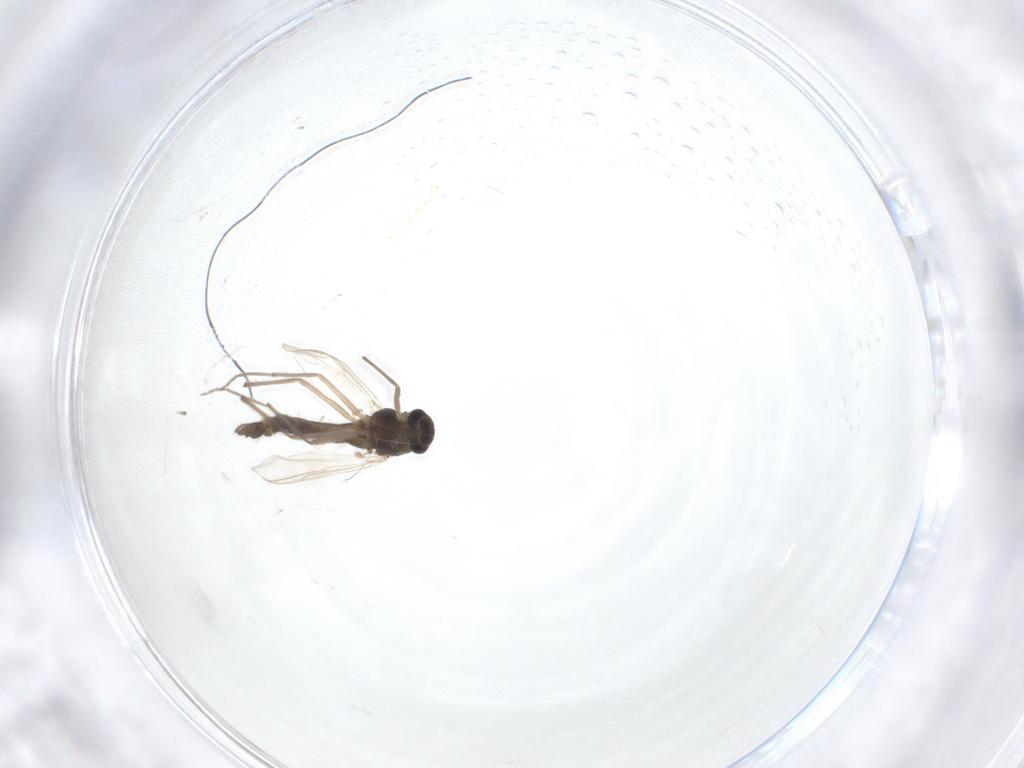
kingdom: Animalia
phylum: Arthropoda
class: Insecta
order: Diptera
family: Chironomidae
